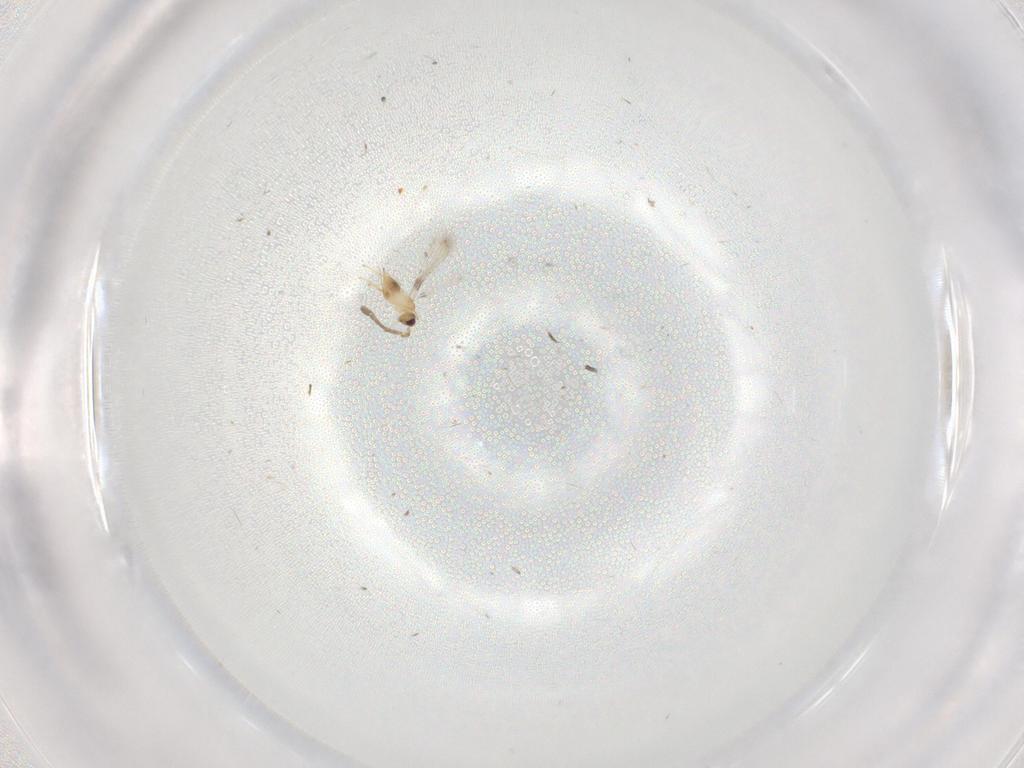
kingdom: Animalia
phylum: Arthropoda
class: Insecta
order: Hymenoptera
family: Mymaridae
